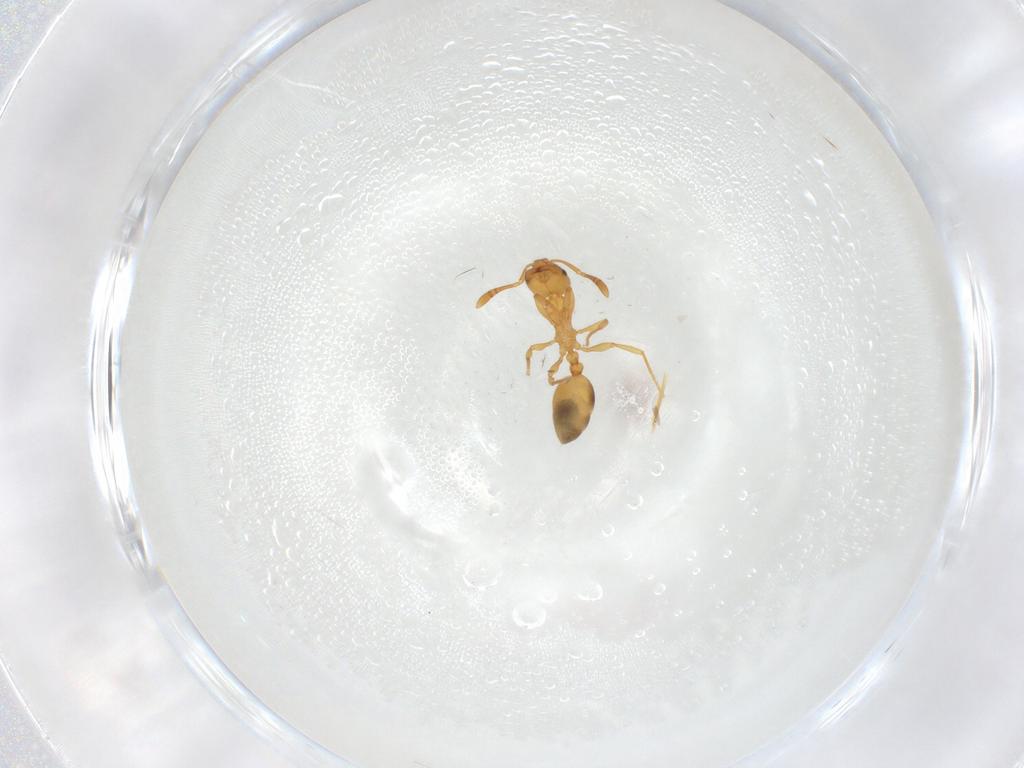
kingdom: Animalia
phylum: Arthropoda
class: Insecta
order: Hymenoptera
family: Formicidae
